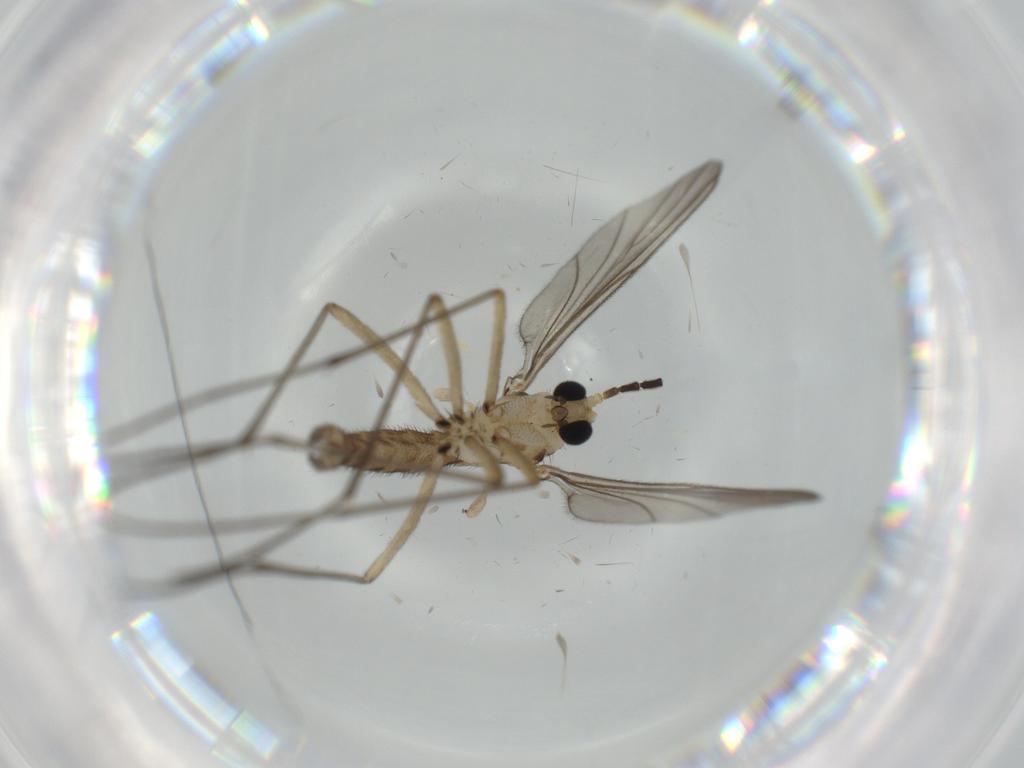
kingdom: Animalia
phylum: Arthropoda
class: Insecta
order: Diptera
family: Sciaridae
